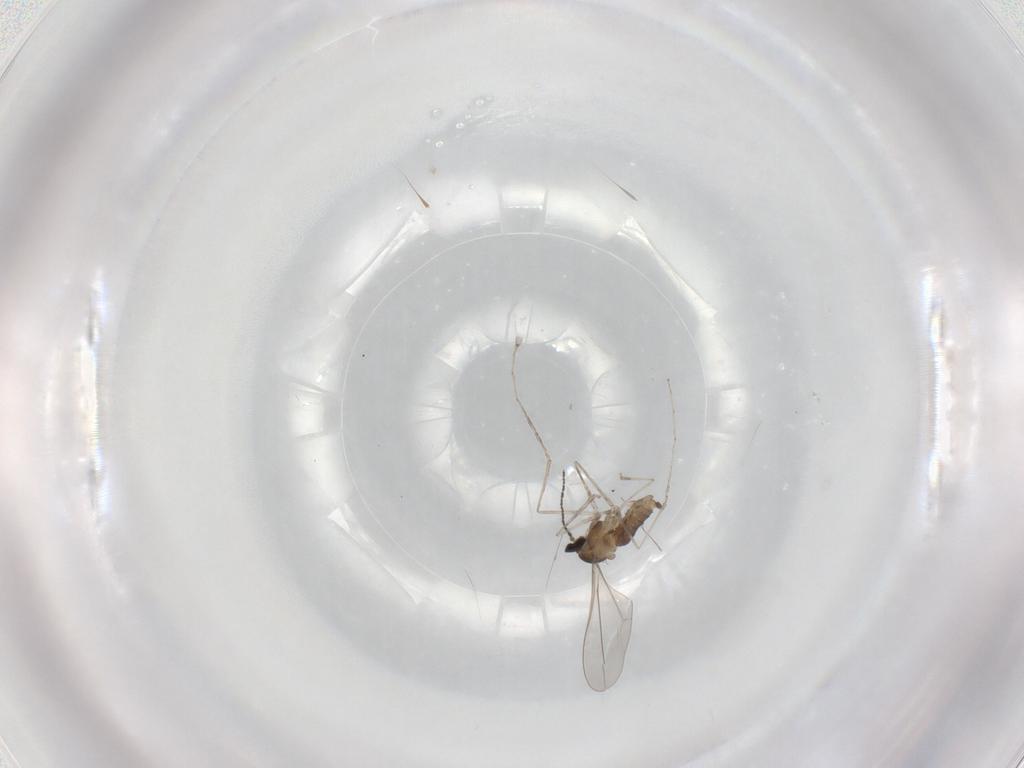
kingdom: Animalia
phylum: Arthropoda
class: Insecta
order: Diptera
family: Cecidomyiidae
